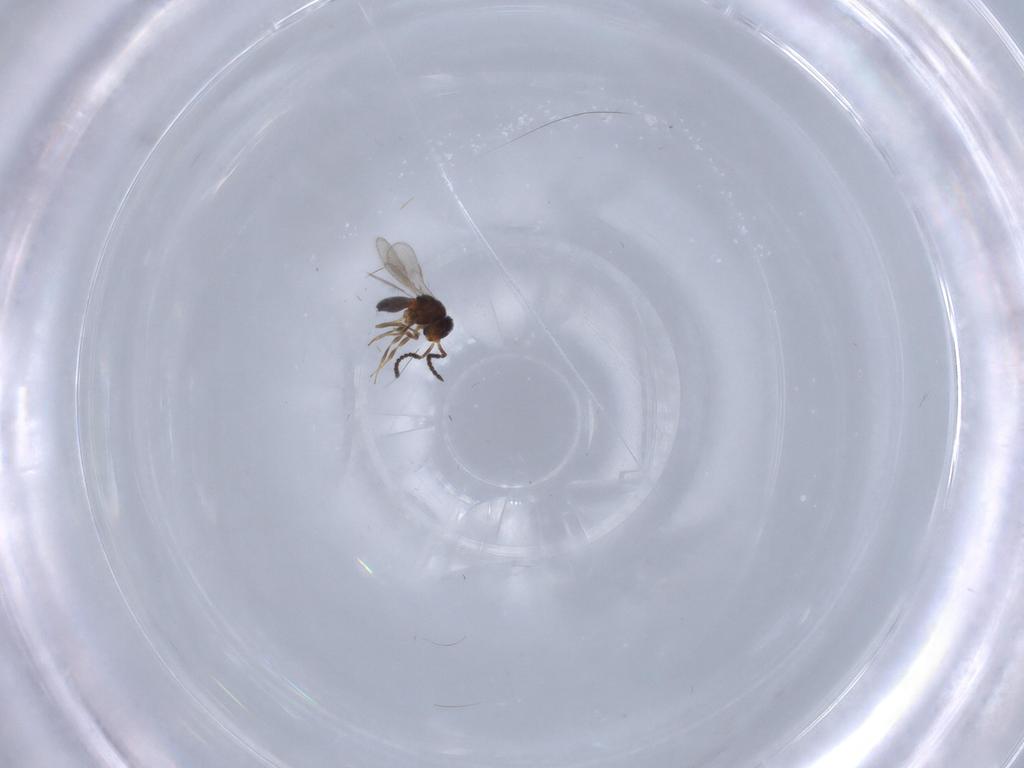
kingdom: Animalia
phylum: Arthropoda
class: Insecta
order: Hymenoptera
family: Scelionidae
